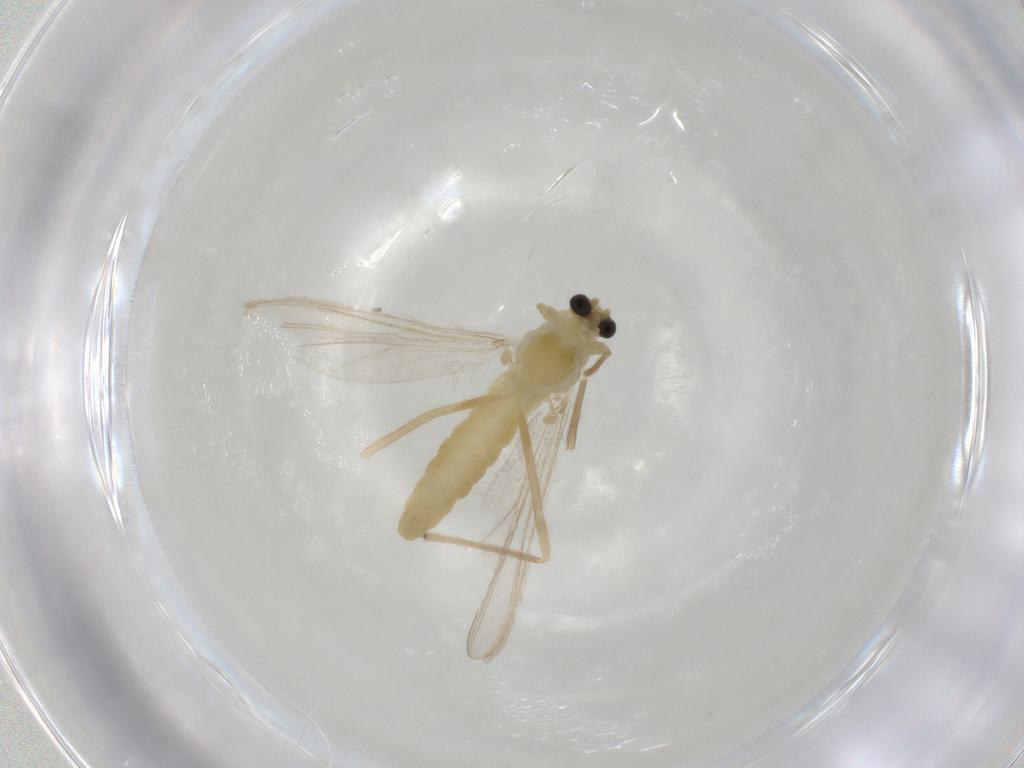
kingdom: Animalia
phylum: Arthropoda
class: Insecta
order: Diptera
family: Chironomidae
